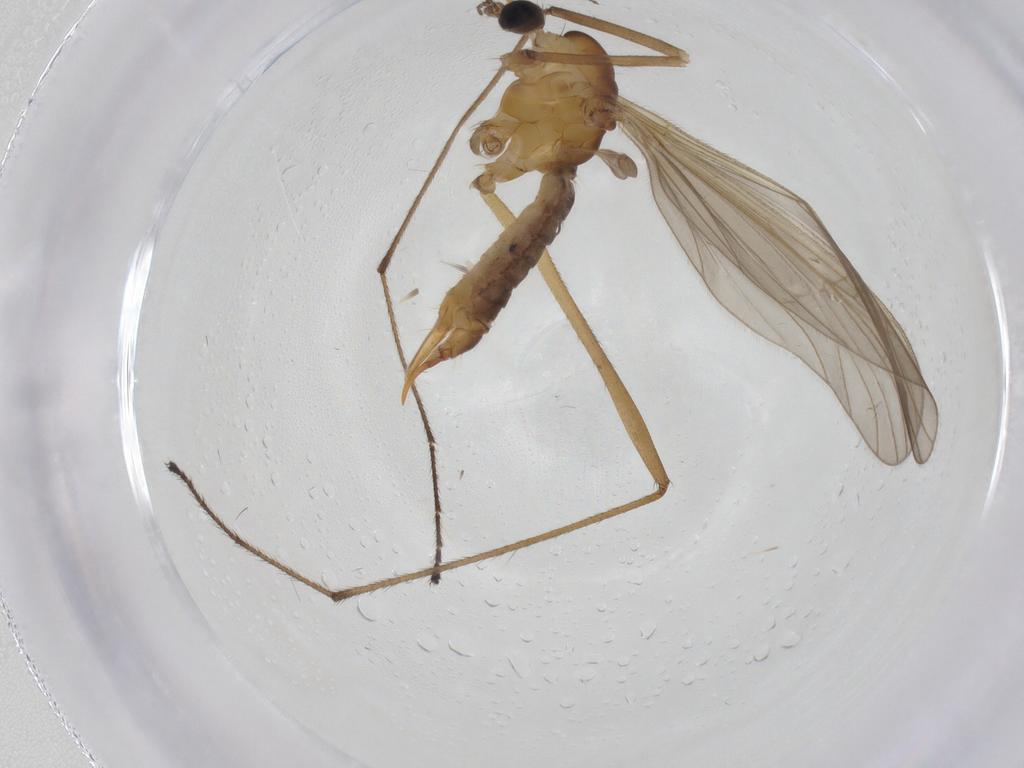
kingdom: Animalia
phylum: Arthropoda
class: Insecta
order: Diptera
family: Limoniidae
